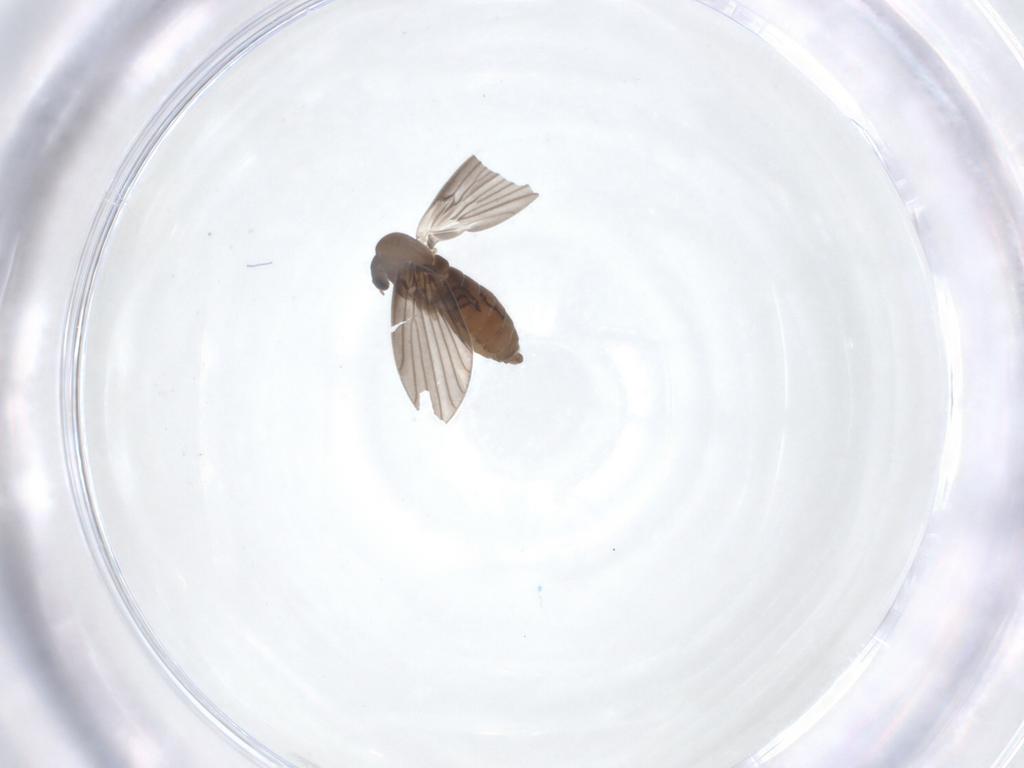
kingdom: Animalia
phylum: Arthropoda
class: Insecta
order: Diptera
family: Psychodidae
